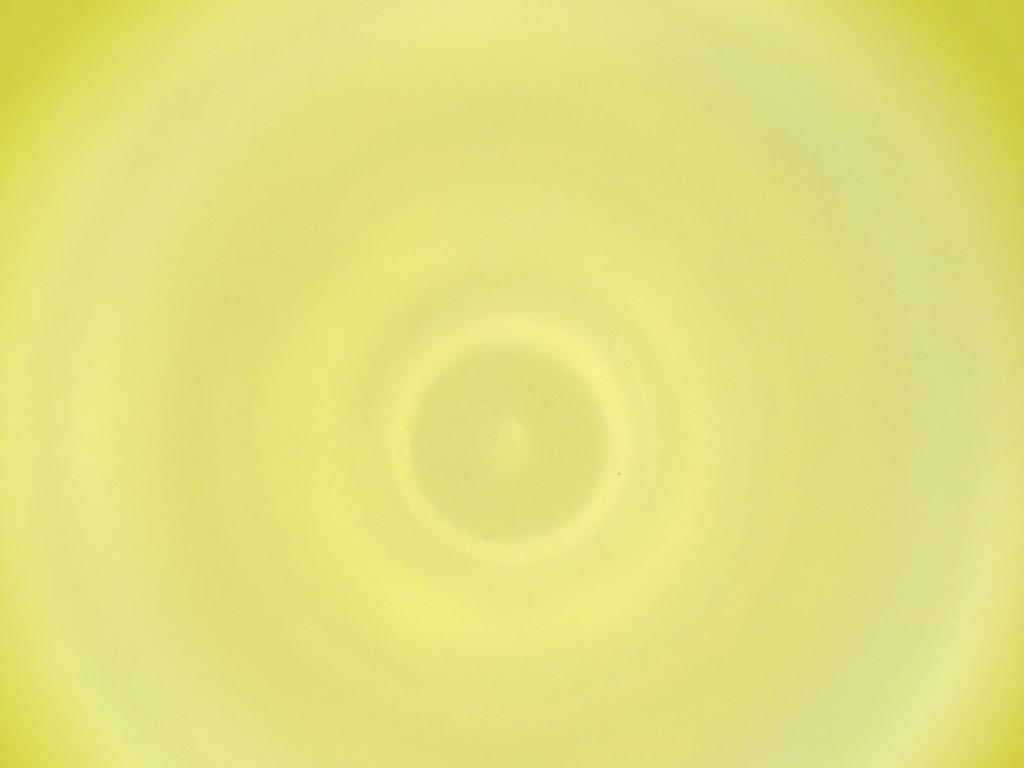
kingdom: Animalia
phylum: Arthropoda
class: Insecta
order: Diptera
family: Cecidomyiidae
